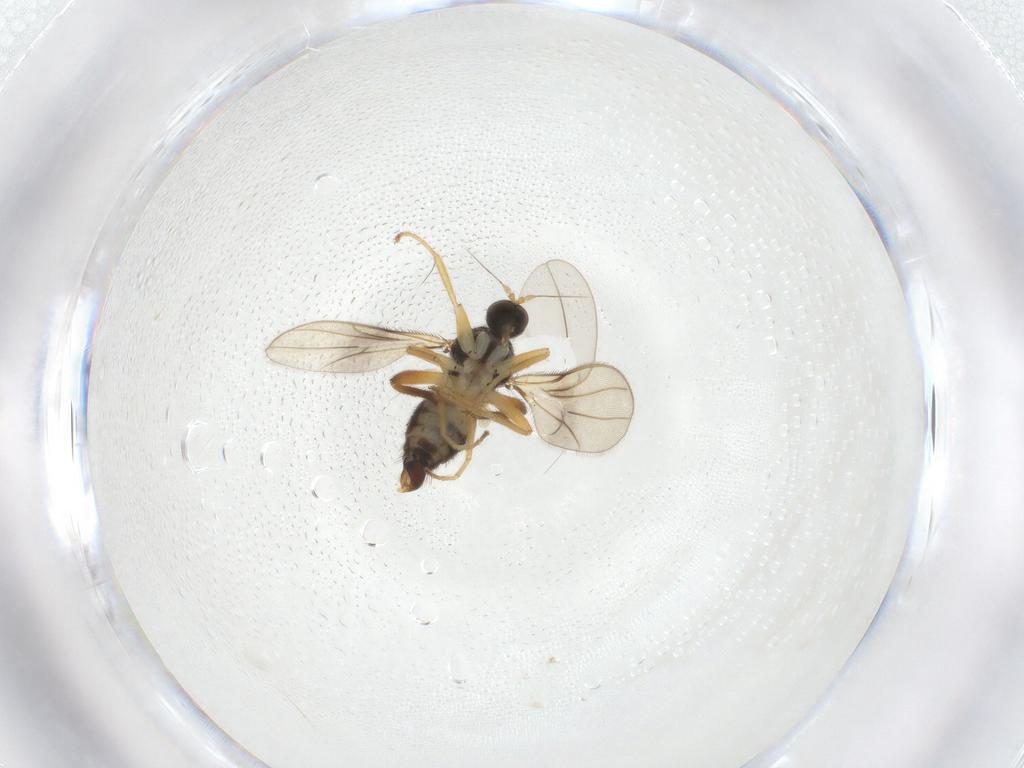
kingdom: Animalia
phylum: Arthropoda
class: Insecta
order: Diptera
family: Hybotidae
